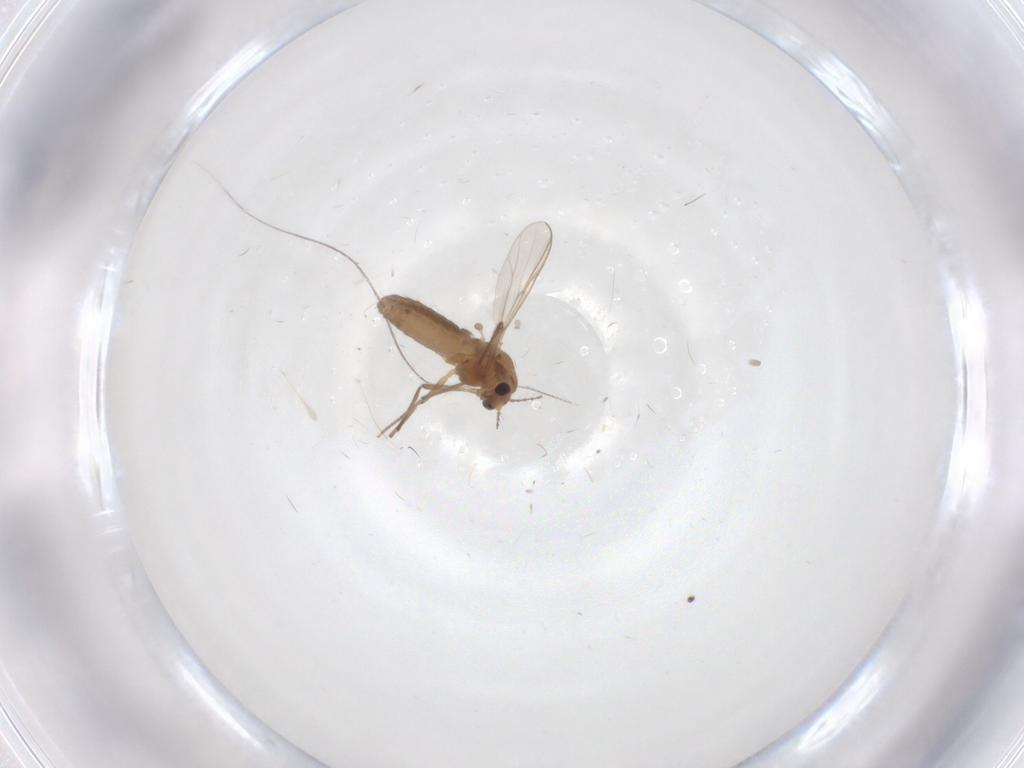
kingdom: Animalia
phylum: Arthropoda
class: Insecta
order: Diptera
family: Chironomidae
